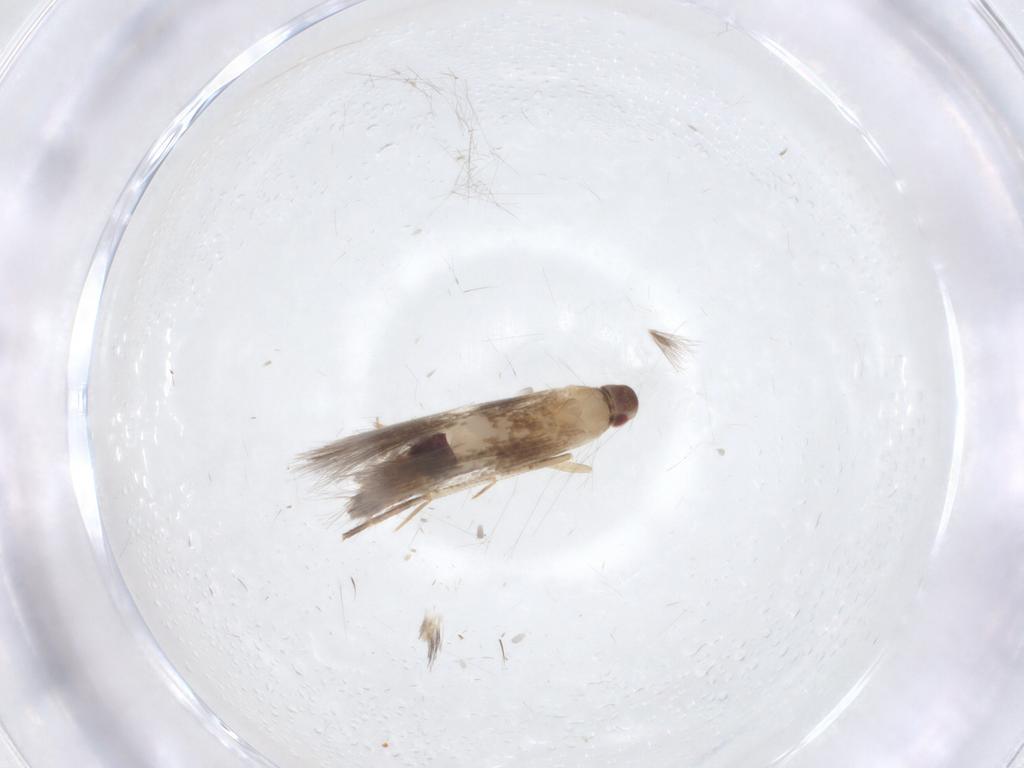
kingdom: Animalia
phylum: Arthropoda
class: Insecta
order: Lepidoptera
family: Cosmopterigidae
